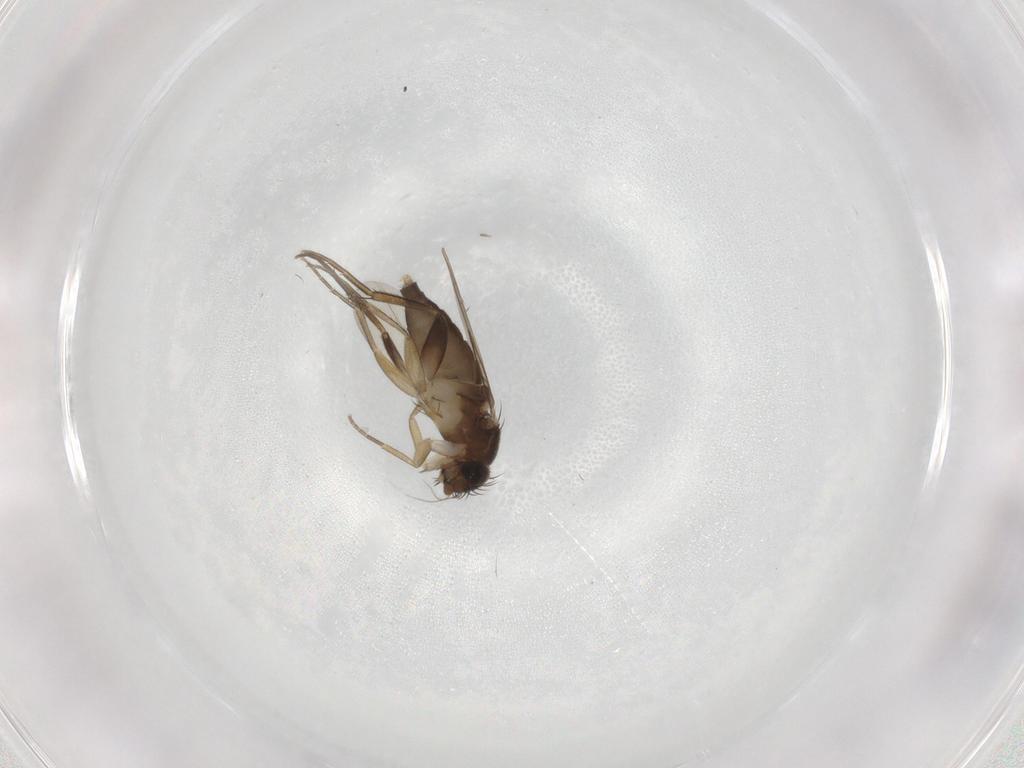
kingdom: Animalia
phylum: Arthropoda
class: Insecta
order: Diptera
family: Phoridae
